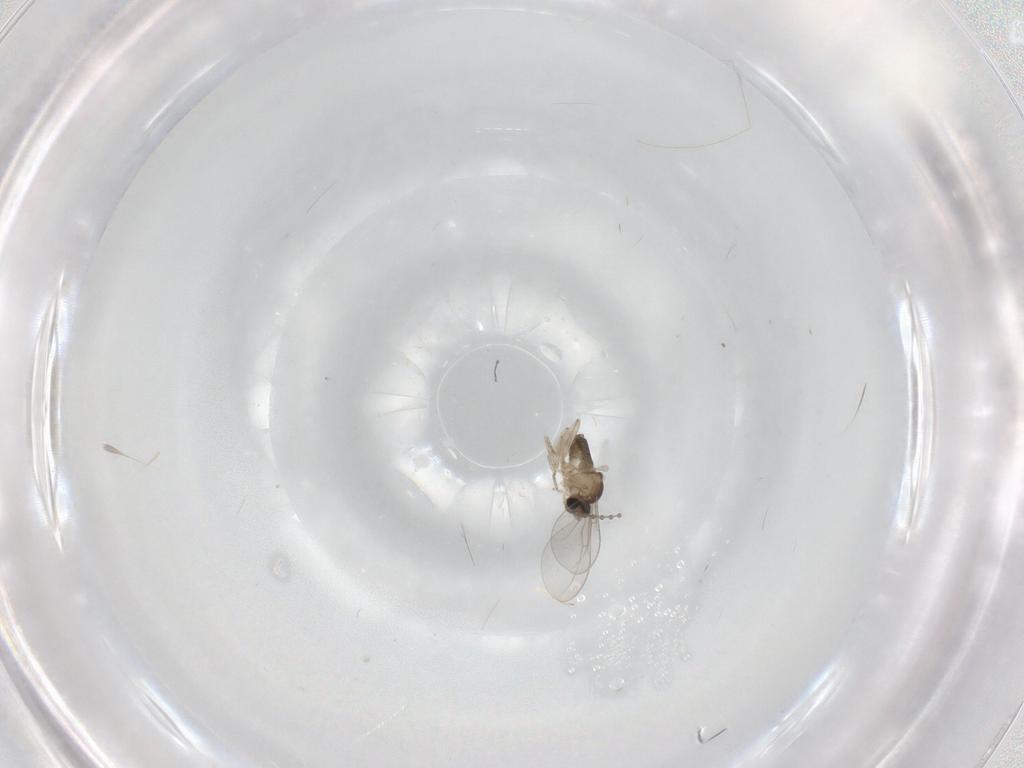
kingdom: Animalia
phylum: Arthropoda
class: Insecta
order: Diptera
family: Cecidomyiidae
